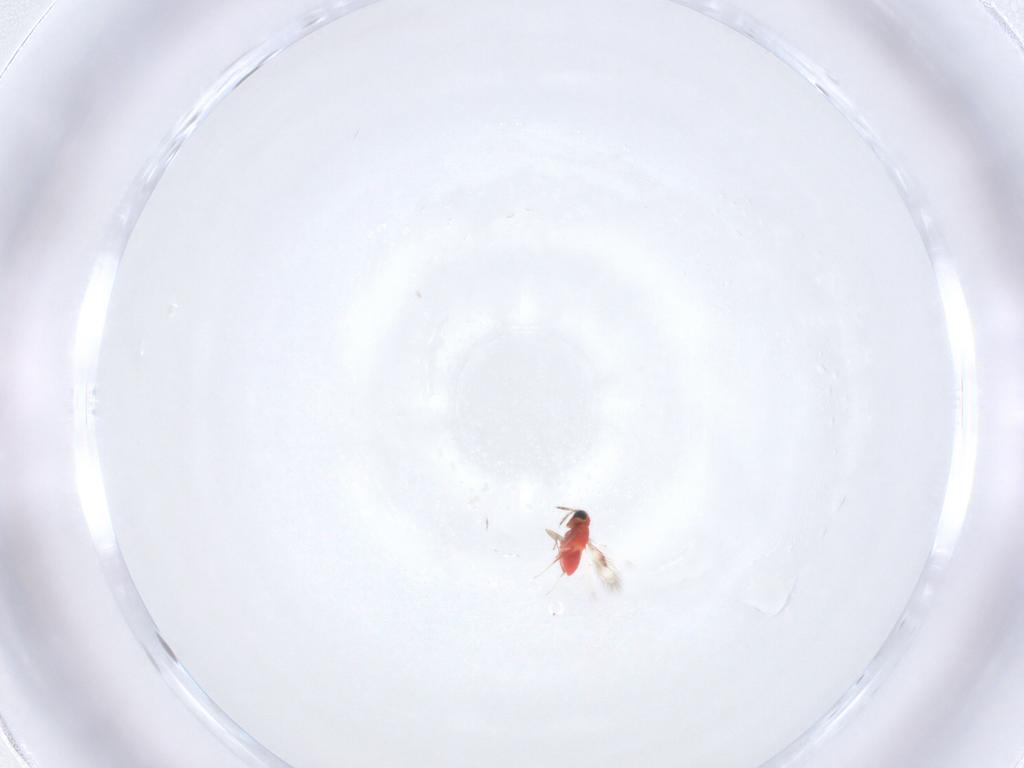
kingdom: Animalia
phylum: Arthropoda
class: Insecta
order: Hymenoptera
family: Trichogrammatidae
